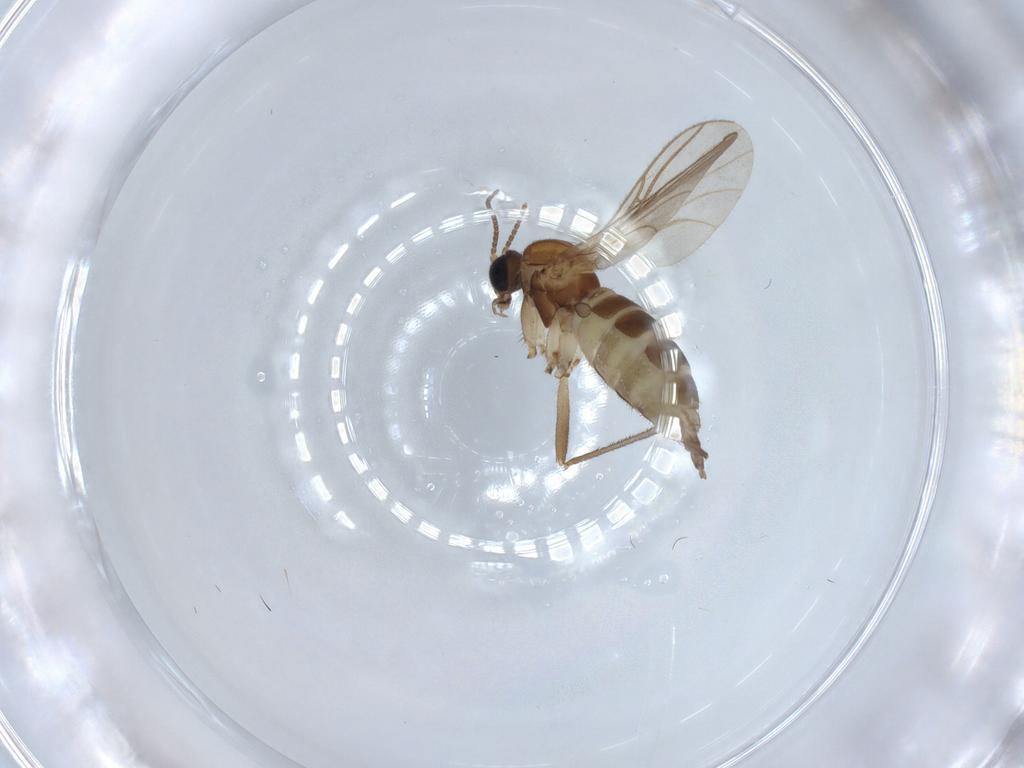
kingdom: Animalia
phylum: Arthropoda
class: Insecta
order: Diptera
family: Sciaridae
